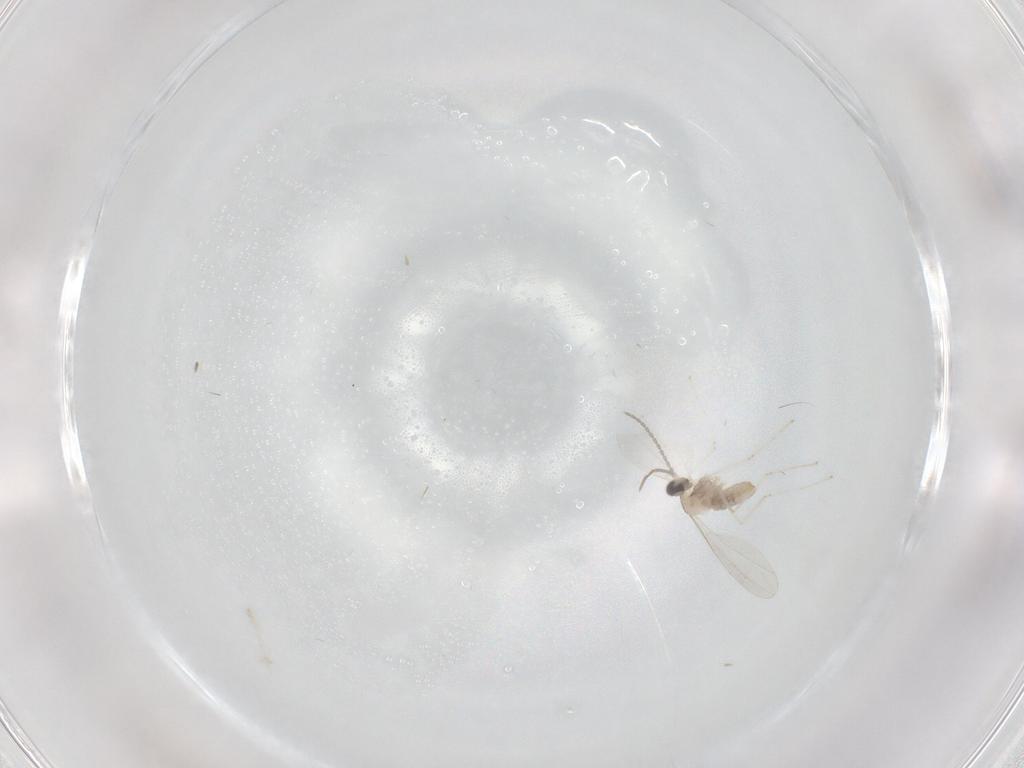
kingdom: Animalia
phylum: Arthropoda
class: Insecta
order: Diptera
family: Cecidomyiidae
